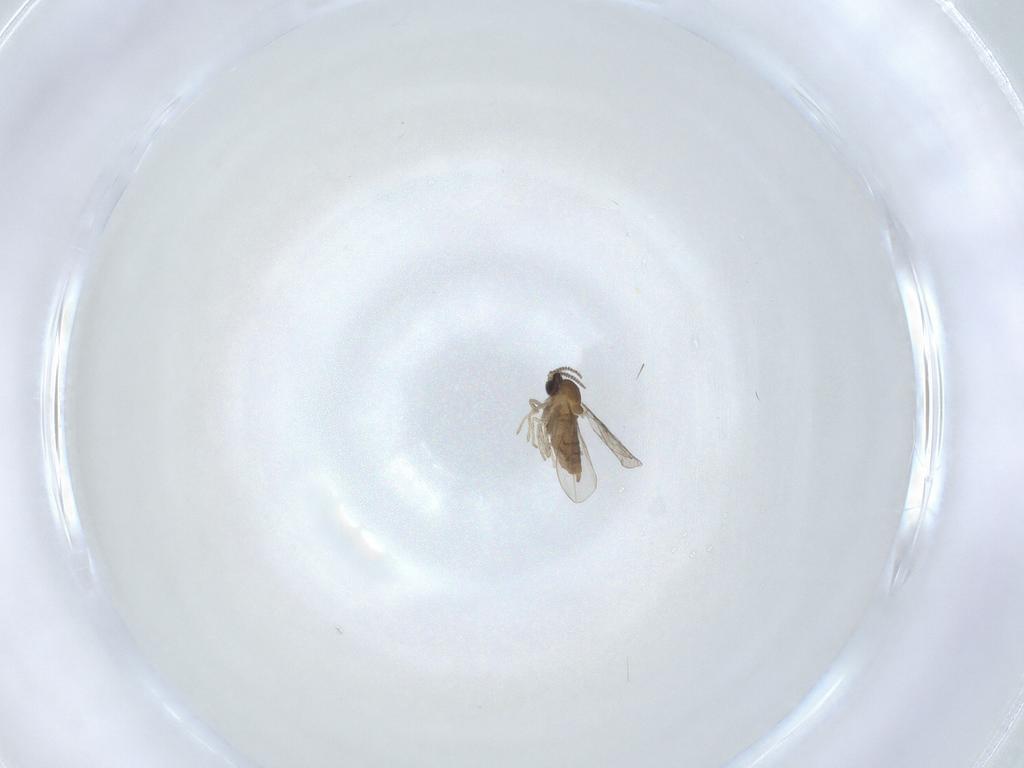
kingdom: Animalia
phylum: Arthropoda
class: Insecta
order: Diptera
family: Cecidomyiidae
